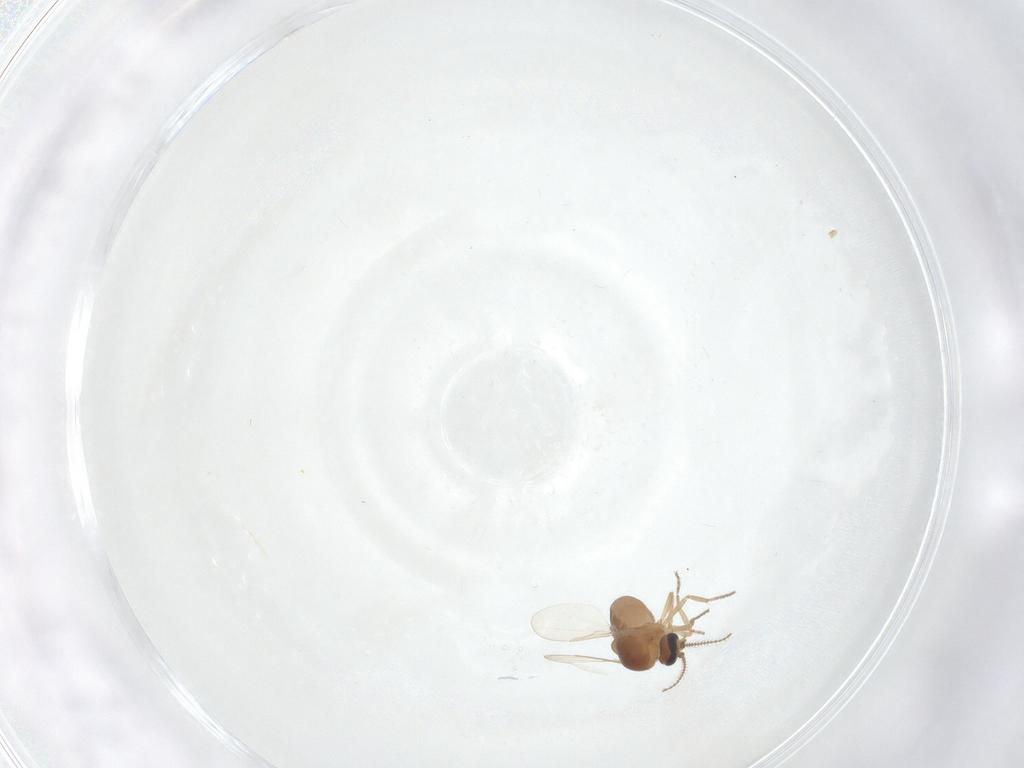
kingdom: Animalia
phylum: Arthropoda
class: Insecta
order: Diptera
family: Ceratopogonidae
